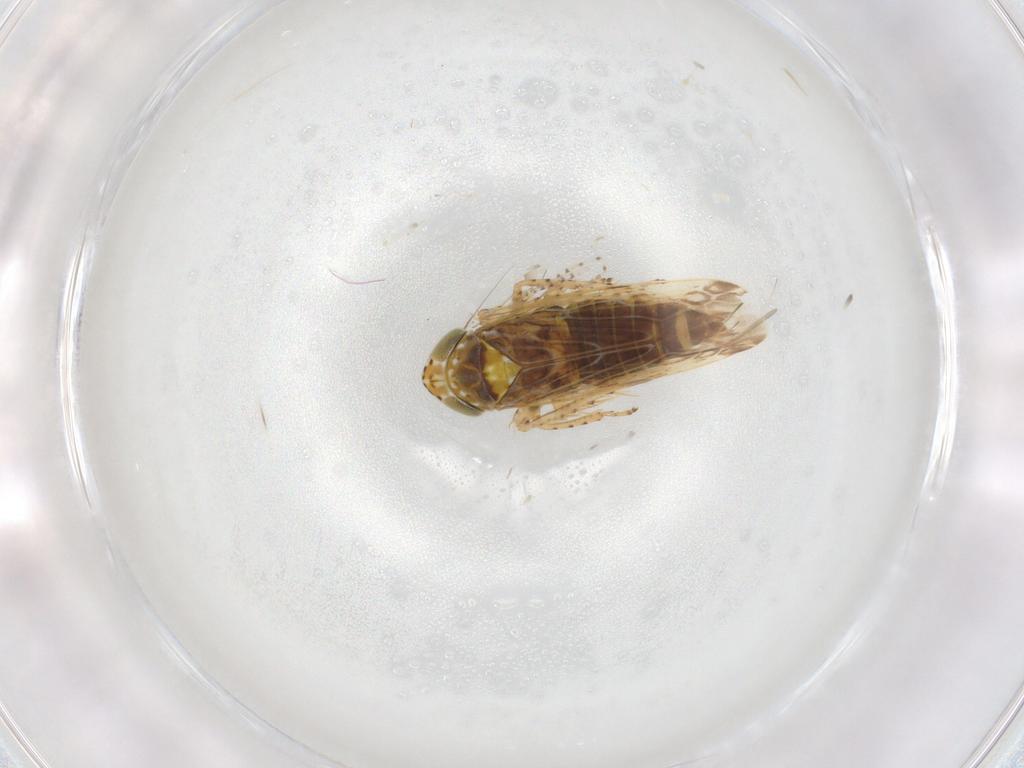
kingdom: Animalia
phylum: Arthropoda
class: Insecta
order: Hemiptera
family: Cicadellidae
